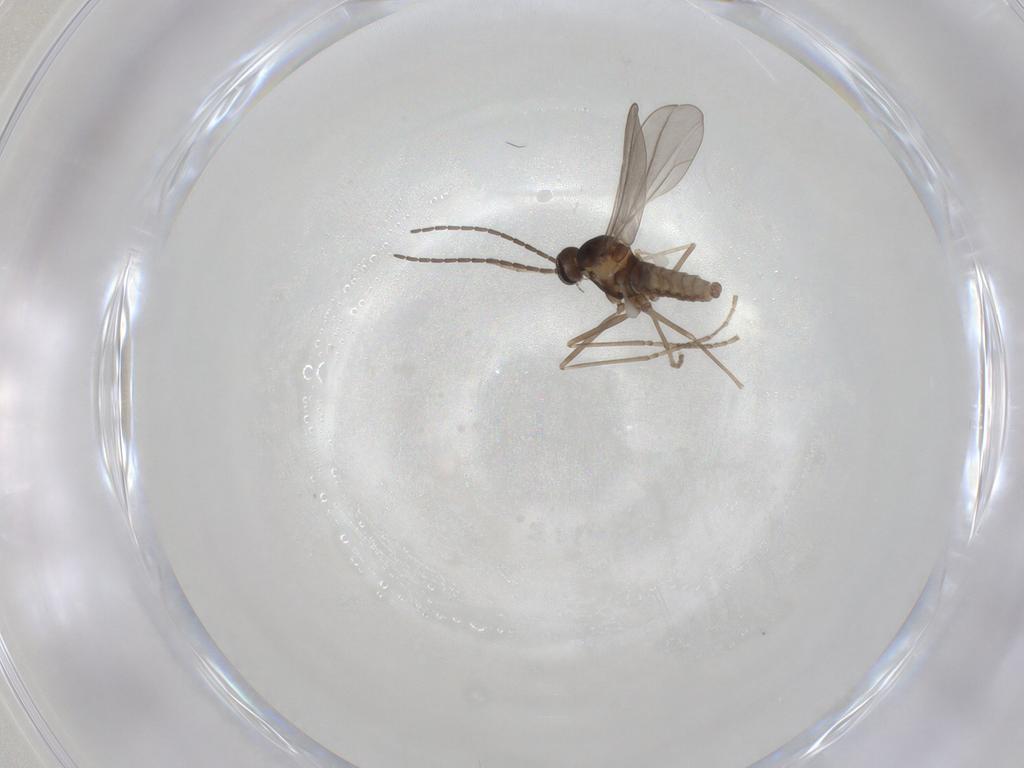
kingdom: Animalia
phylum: Arthropoda
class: Insecta
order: Diptera
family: Cecidomyiidae
